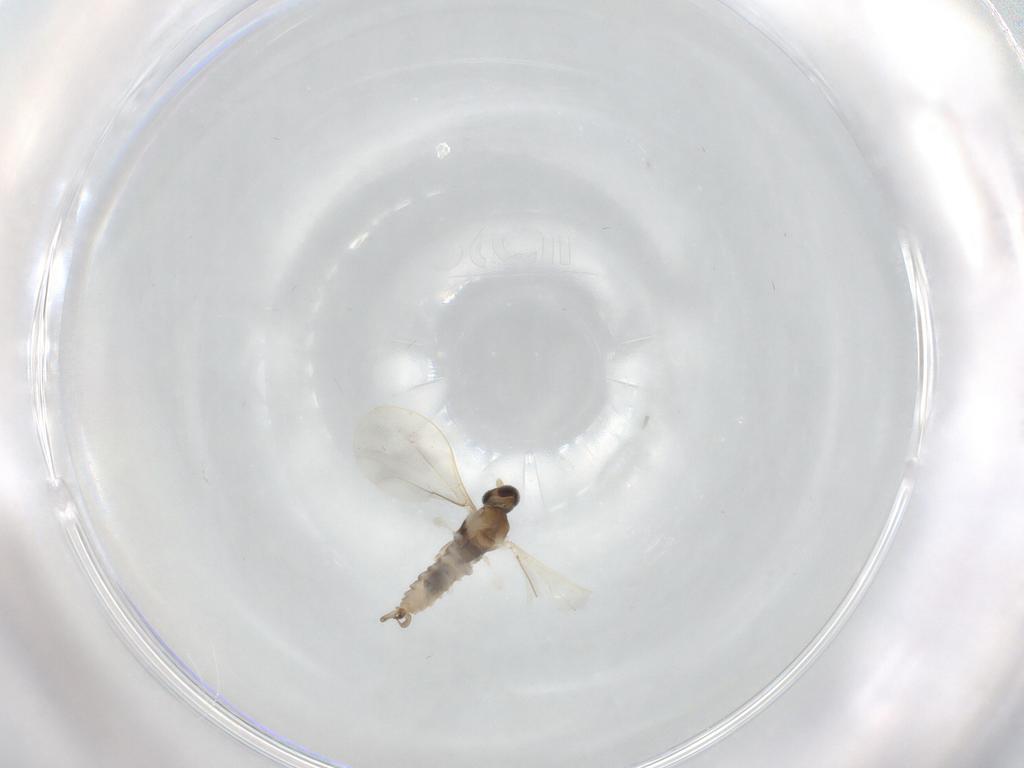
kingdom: Animalia
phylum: Arthropoda
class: Insecta
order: Diptera
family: Cecidomyiidae
